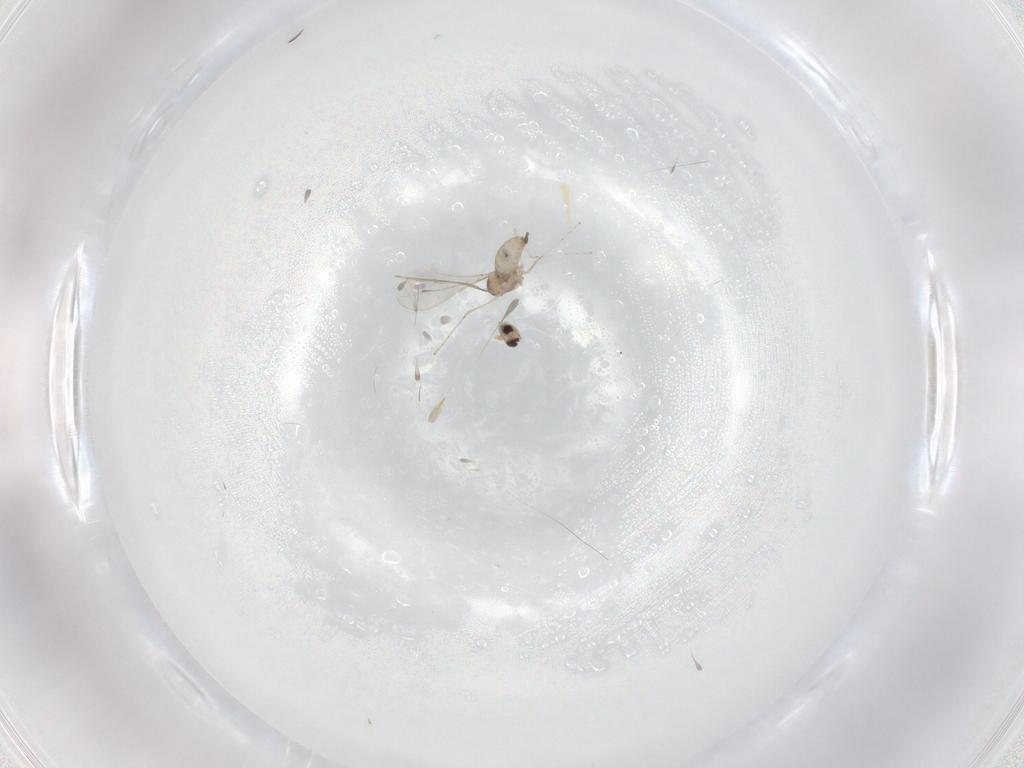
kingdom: Animalia
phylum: Arthropoda
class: Insecta
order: Diptera
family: Cecidomyiidae
